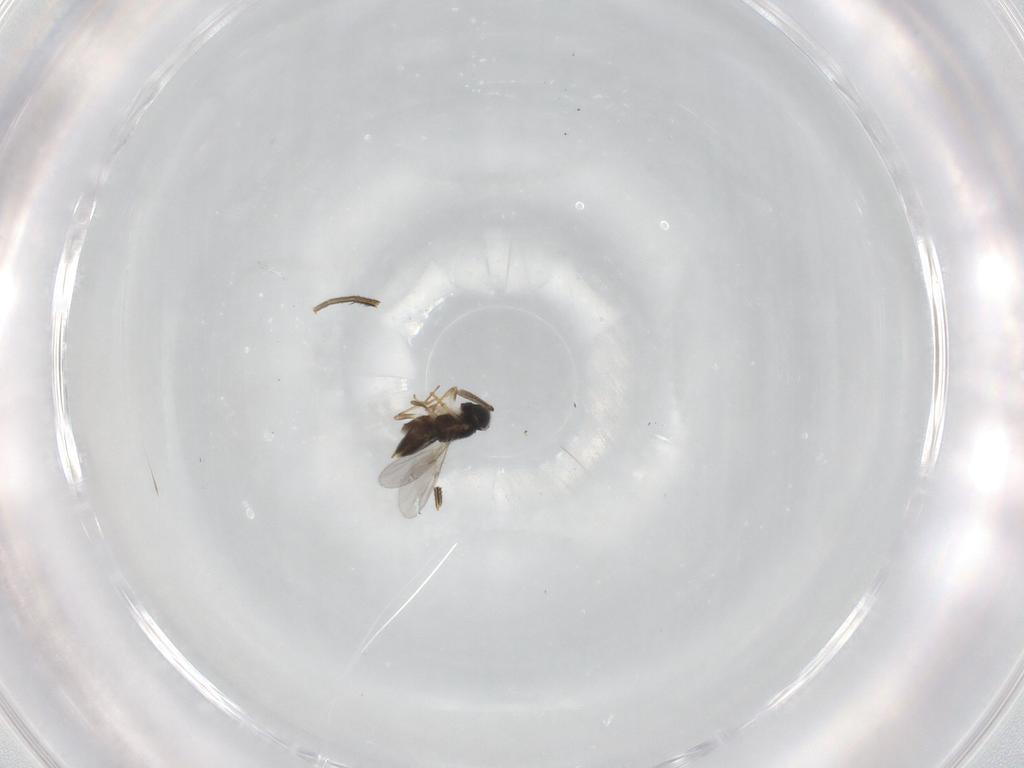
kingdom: Animalia
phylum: Arthropoda
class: Insecta
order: Hymenoptera
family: Encyrtidae
